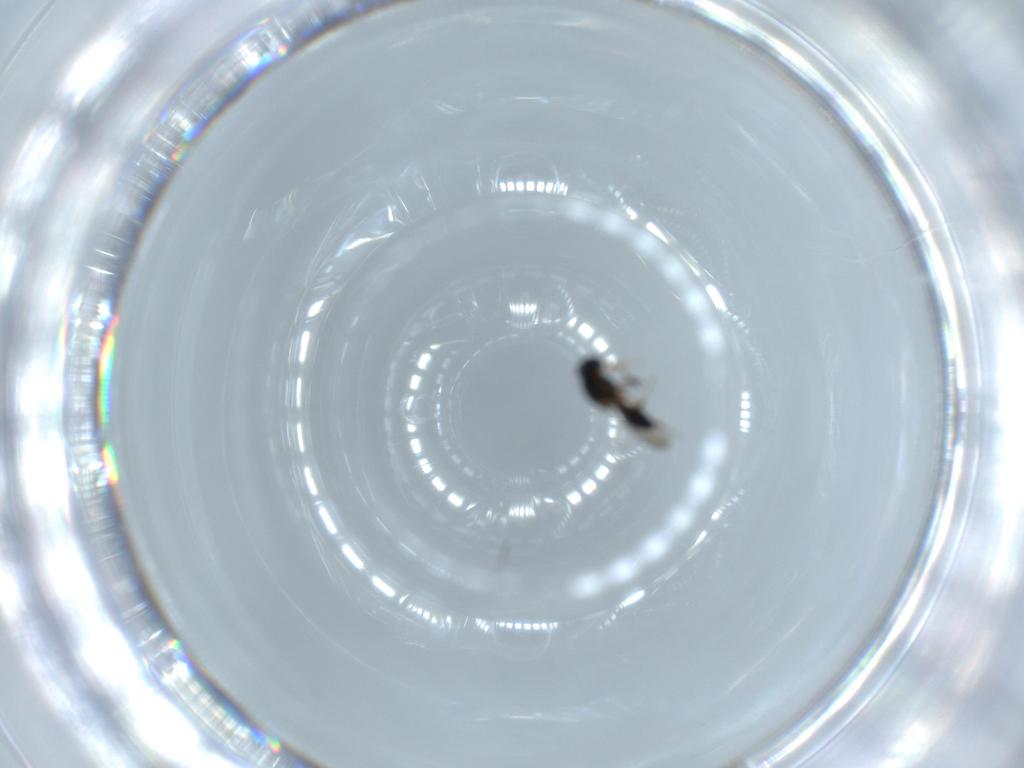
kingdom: Animalia
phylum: Arthropoda
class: Insecta
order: Hymenoptera
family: Platygastridae
